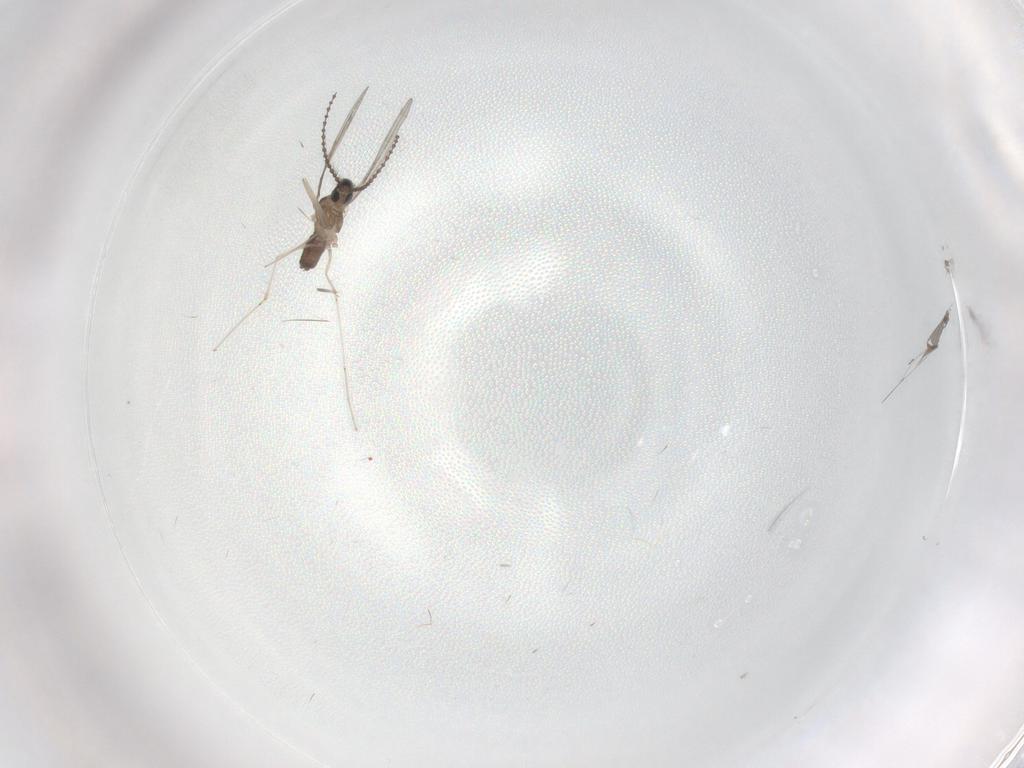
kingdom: Animalia
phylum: Arthropoda
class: Insecta
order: Diptera
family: Cecidomyiidae
